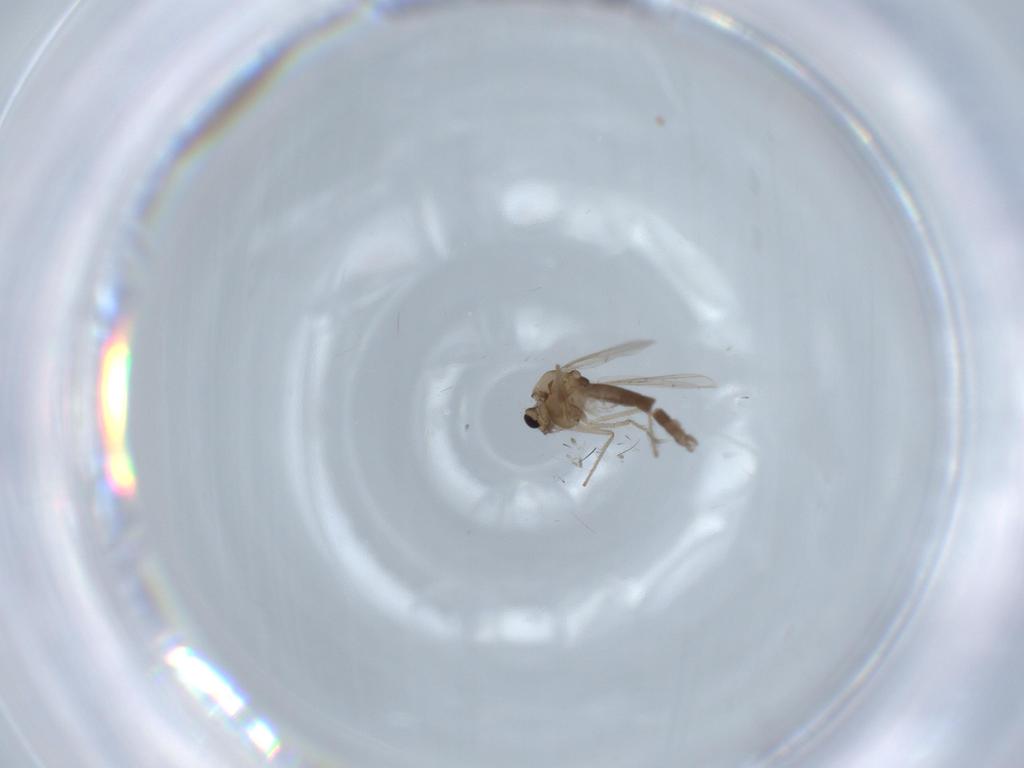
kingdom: Animalia
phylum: Arthropoda
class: Insecta
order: Diptera
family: Chironomidae
